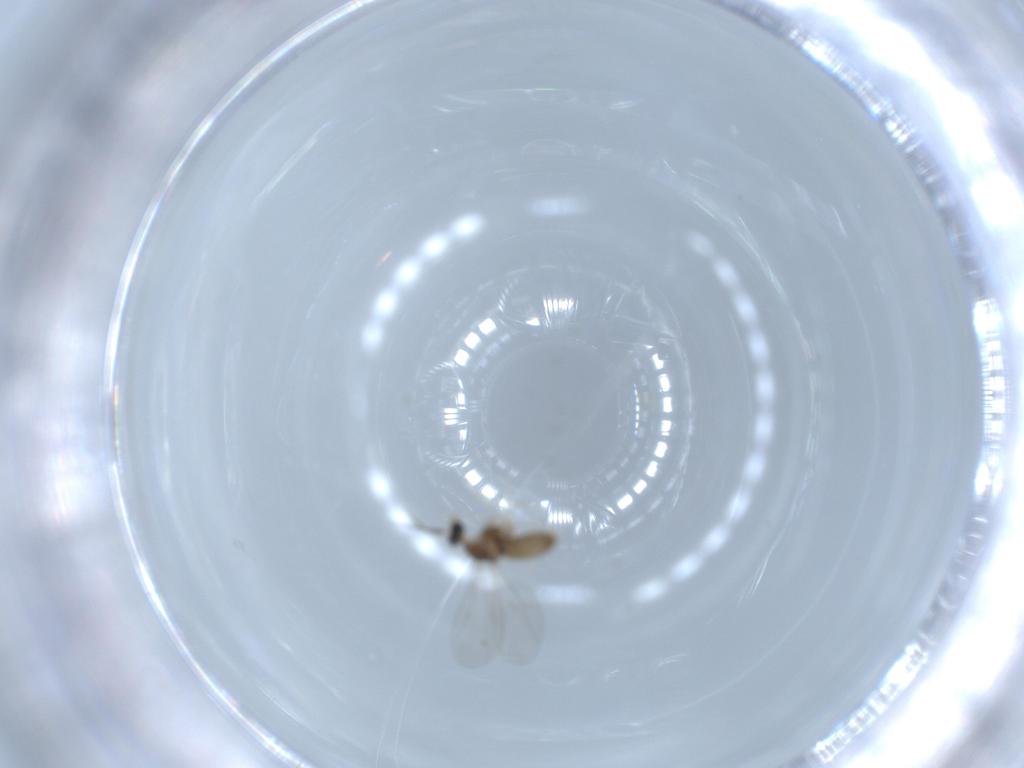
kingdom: Animalia
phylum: Arthropoda
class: Insecta
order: Diptera
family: Cecidomyiidae
